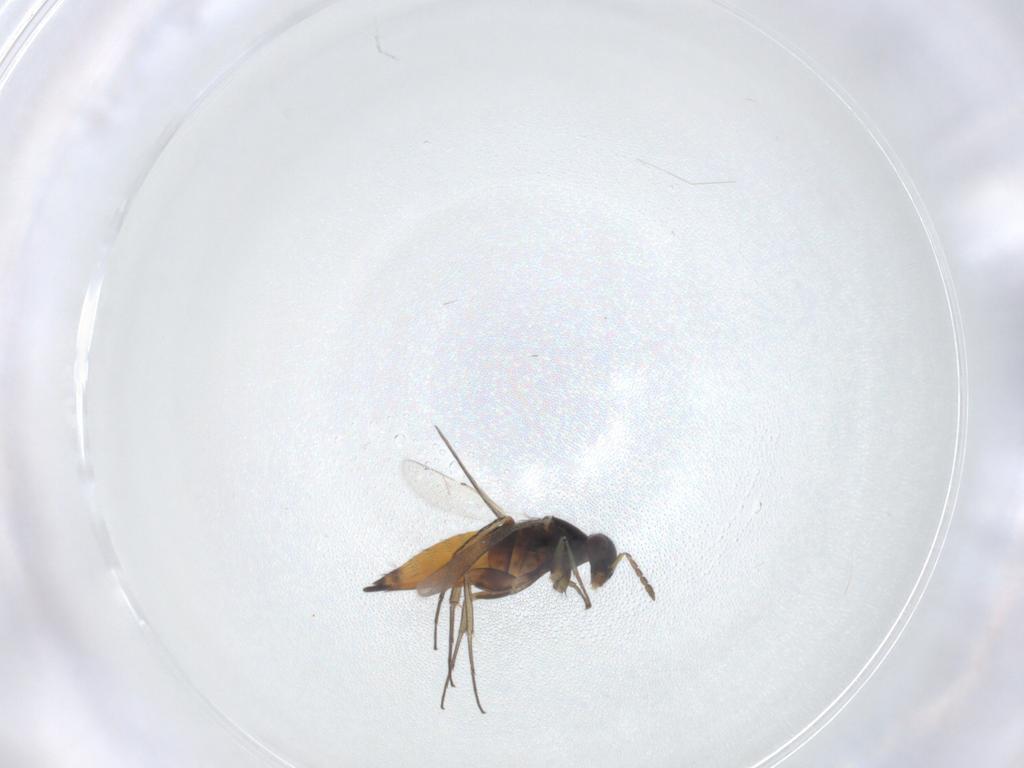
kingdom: Animalia
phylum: Arthropoda
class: Insecta
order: Hymenoptera
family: Eulophidae
